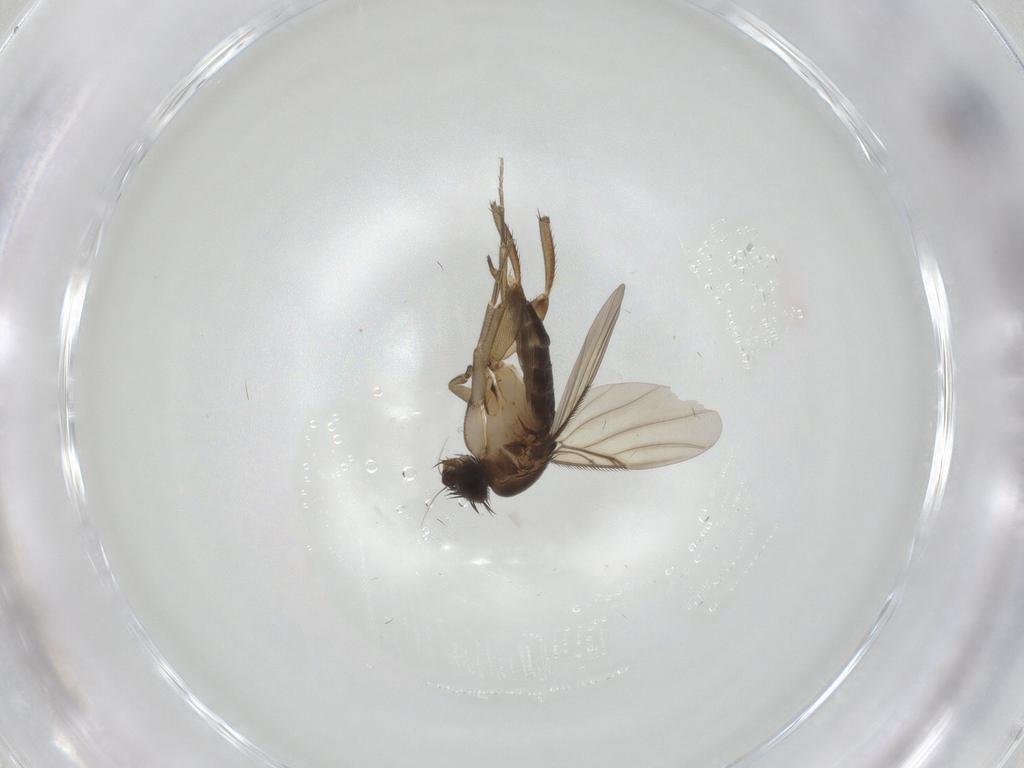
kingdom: Animalia
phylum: Arthropoda
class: Insecta
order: Diptera
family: Phoridae
